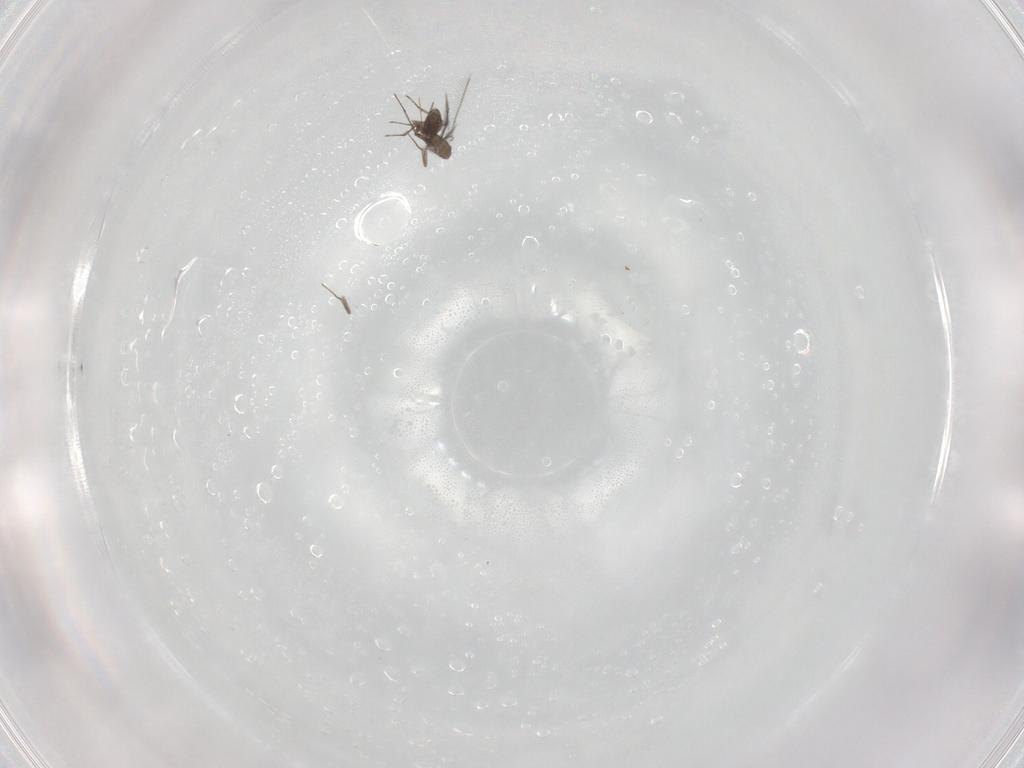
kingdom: Animalia
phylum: Arthropoda
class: Insecta
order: Hymenoptera
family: Mymaridae
